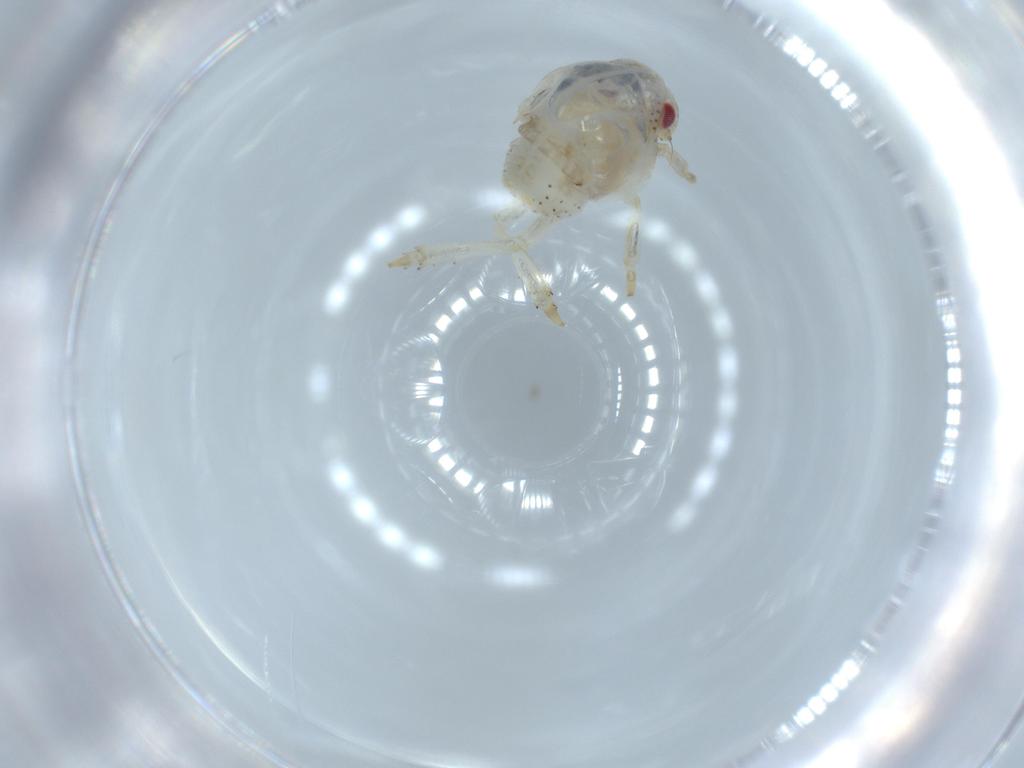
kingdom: Animalia
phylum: Arthropoda
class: Insecta
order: Hemiptera
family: Acanaloniidae
